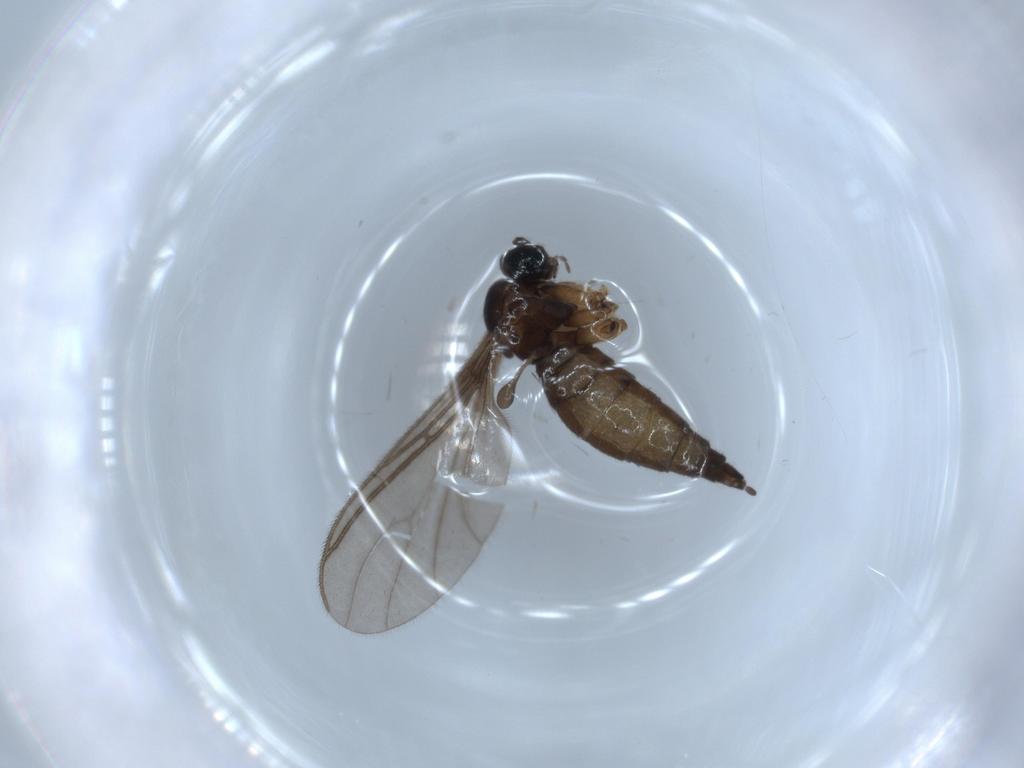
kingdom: Animalia
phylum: Arthropoda
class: Insecta
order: Diptera
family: Sciaridae
